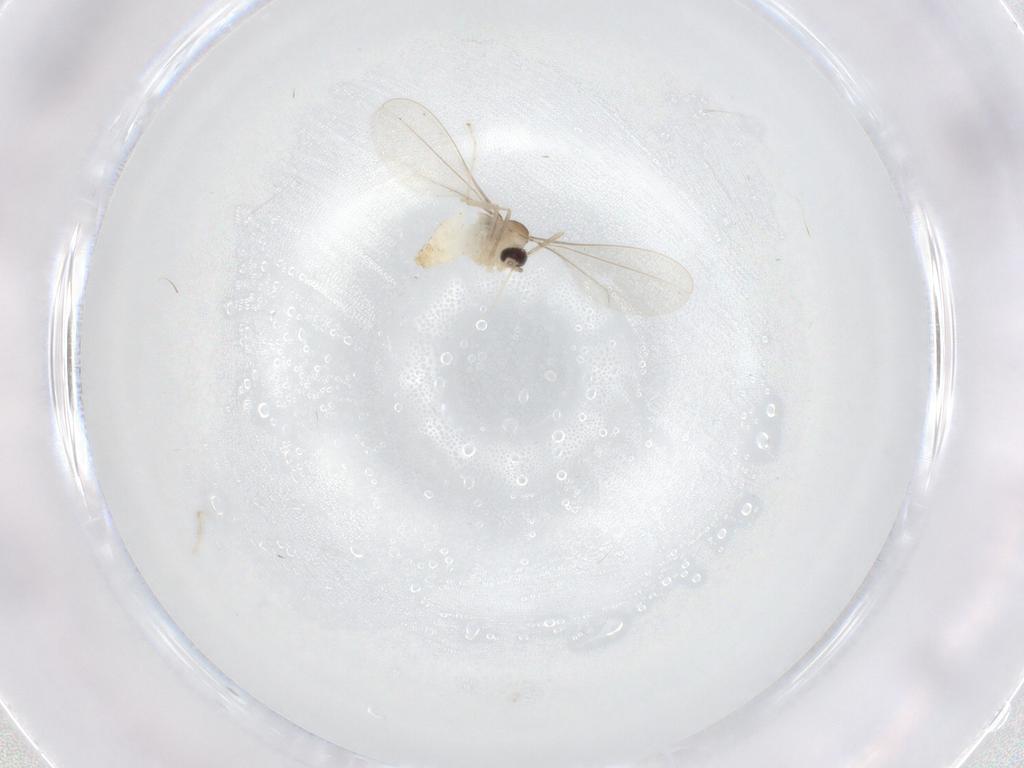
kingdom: Animalia
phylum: Arthropoda
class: Insecta
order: Diptera
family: Cecidomyiidae
